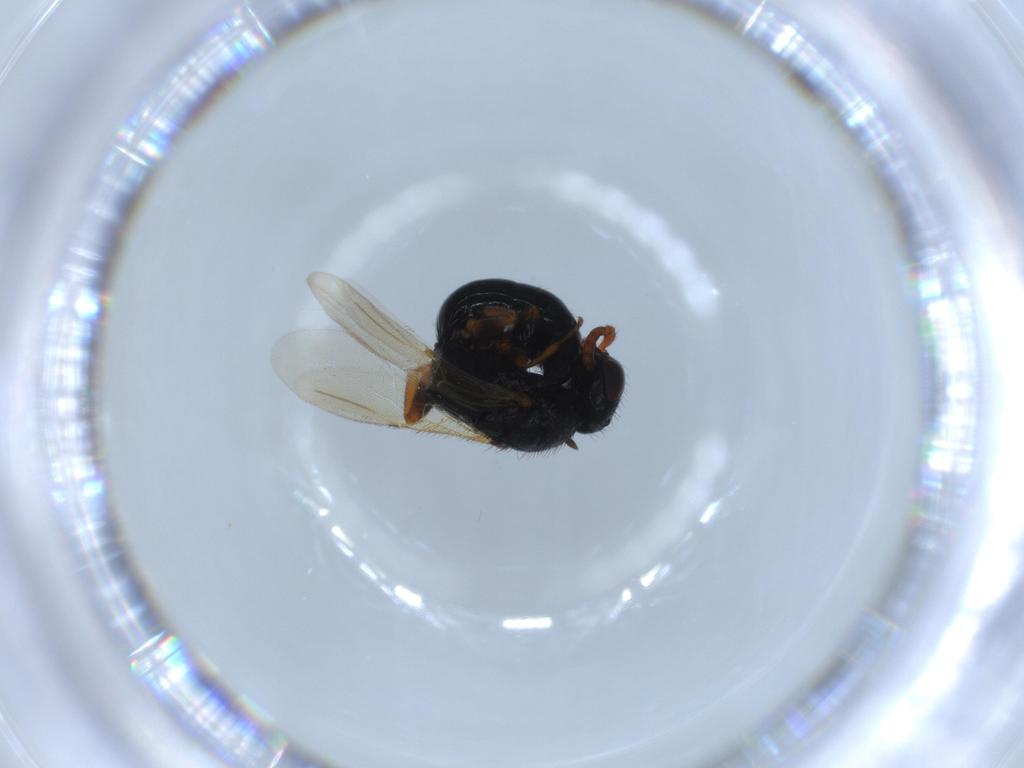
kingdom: Animalia
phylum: Arthropoda
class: Insecta
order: Hymenoptera
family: Bethylidae
